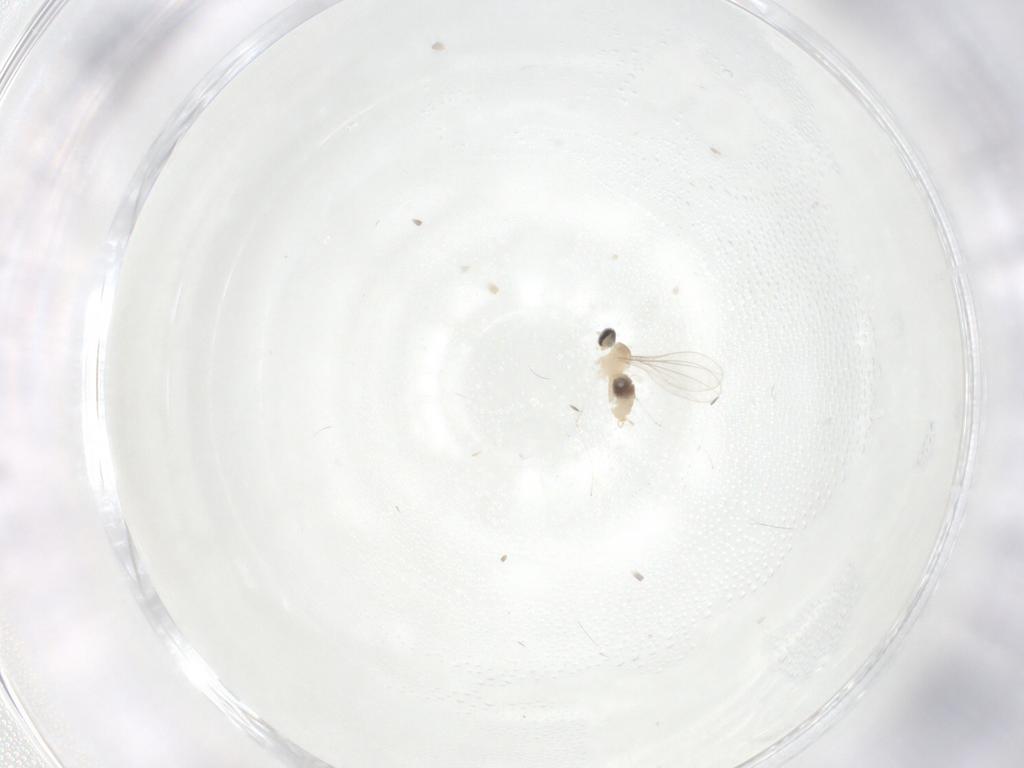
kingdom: Animalia
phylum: Arthropoda
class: Insecta
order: Diptera
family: Cecidomyiidae
